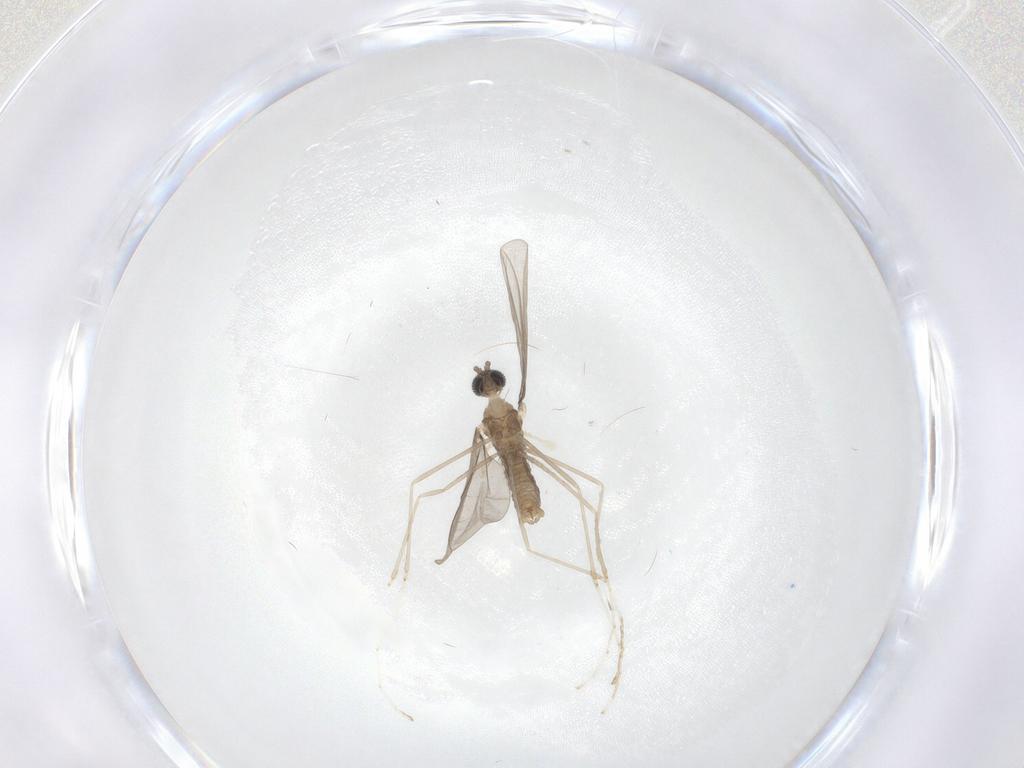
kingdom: Animalia
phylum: Arthropoda
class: Insecta
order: Diptera
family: Cecidomyiidae
